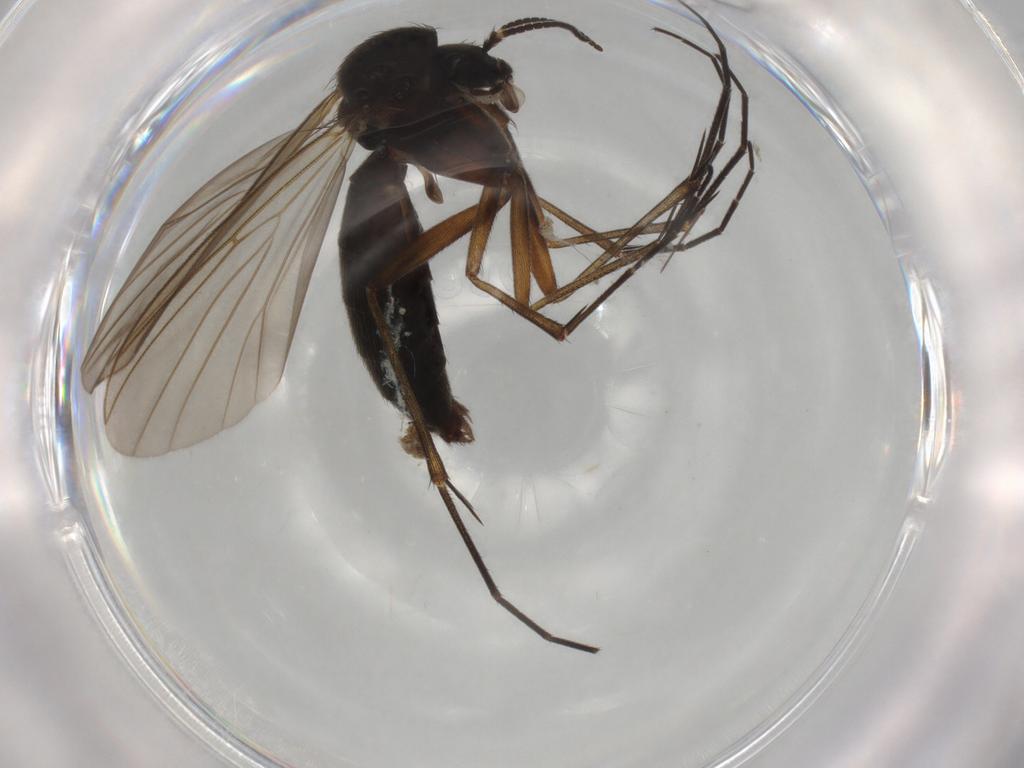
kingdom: Animalia
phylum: Arthropoda
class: Insecta
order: Diptera
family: Mycetophilidae
